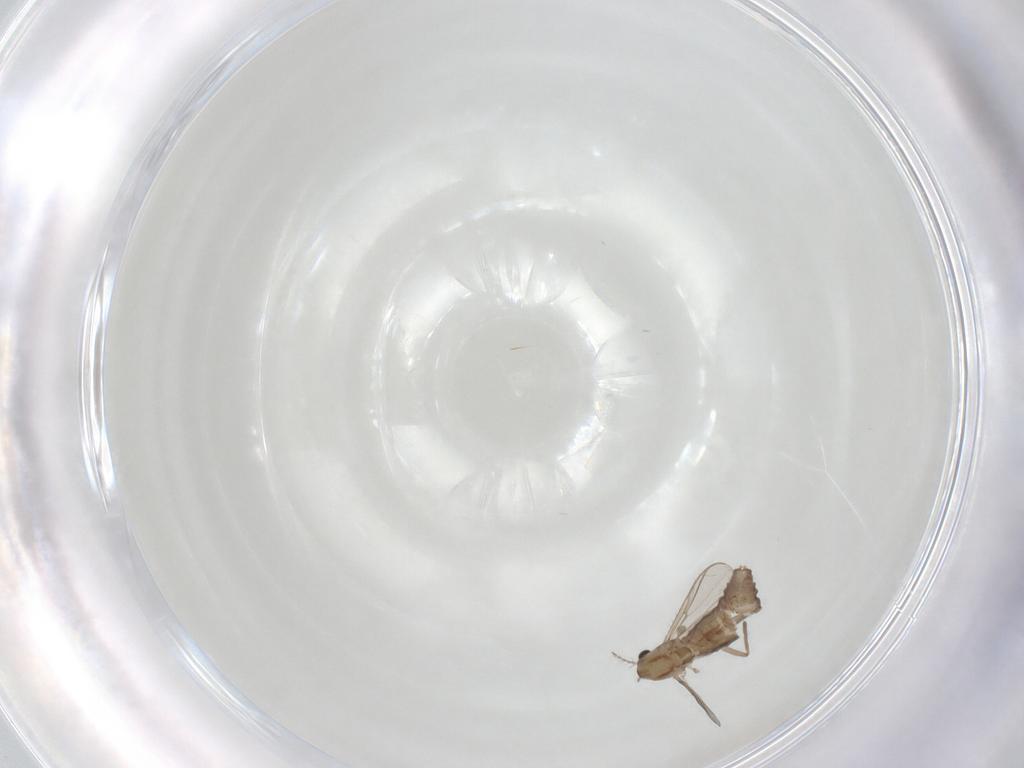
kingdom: Animalia
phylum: Arthropoda
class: Insecta
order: Diptera
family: Chironomidae
